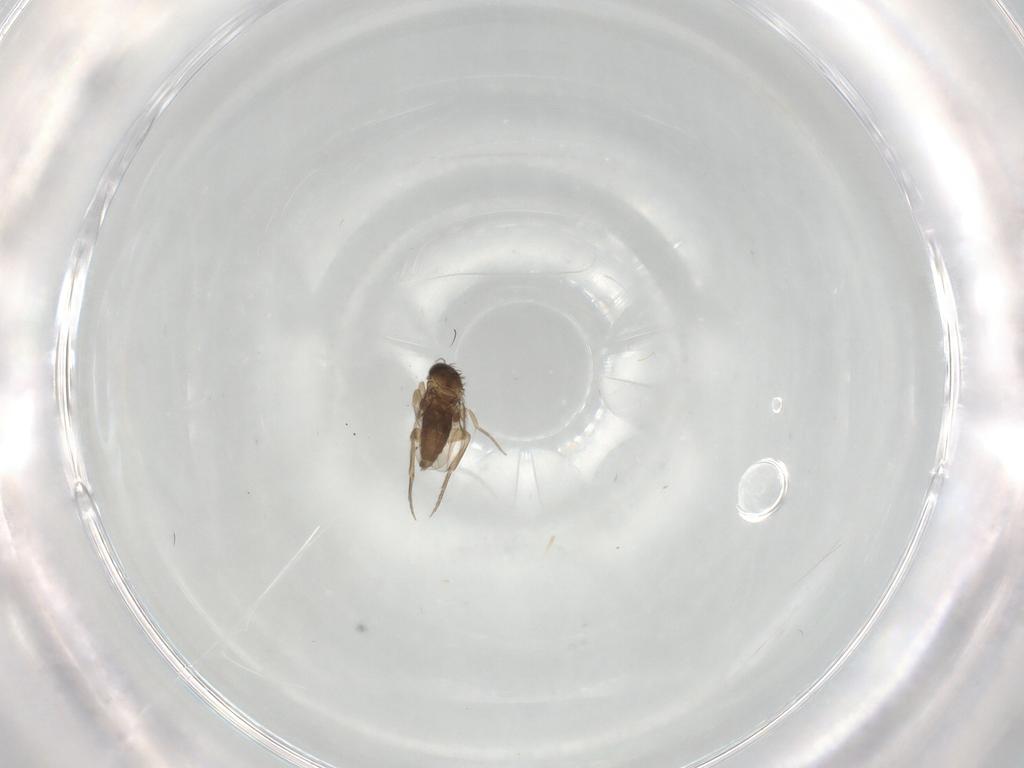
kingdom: Animalia
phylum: Arthropoda
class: Insecta
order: Diptera
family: Phoridae
